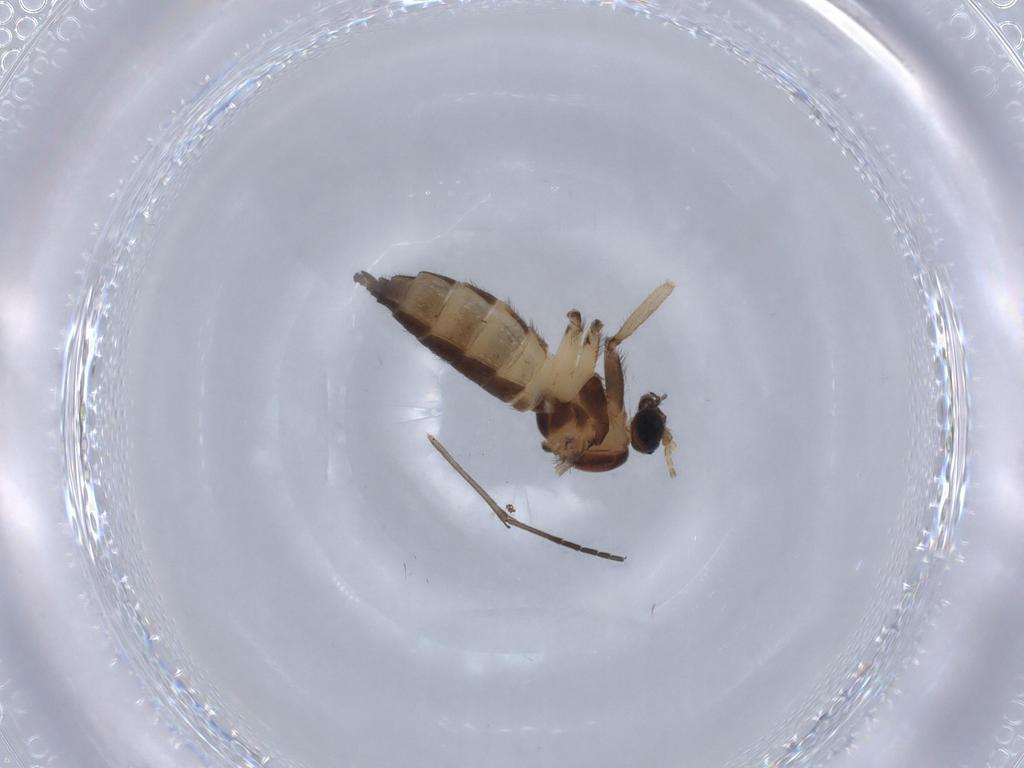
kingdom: Animalia
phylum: Arthropoda
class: Insecta
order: Diptera
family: Sciaridae
